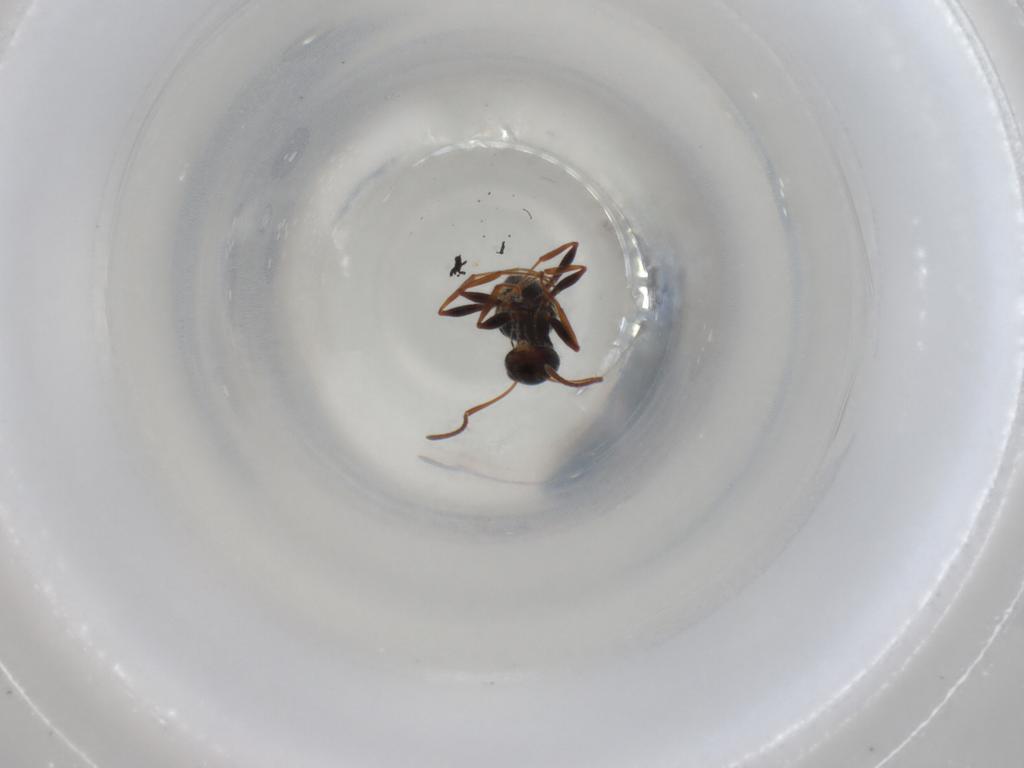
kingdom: Animalia
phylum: Arthropoda
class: Insecta
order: Hymenoptera
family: Formicidae
